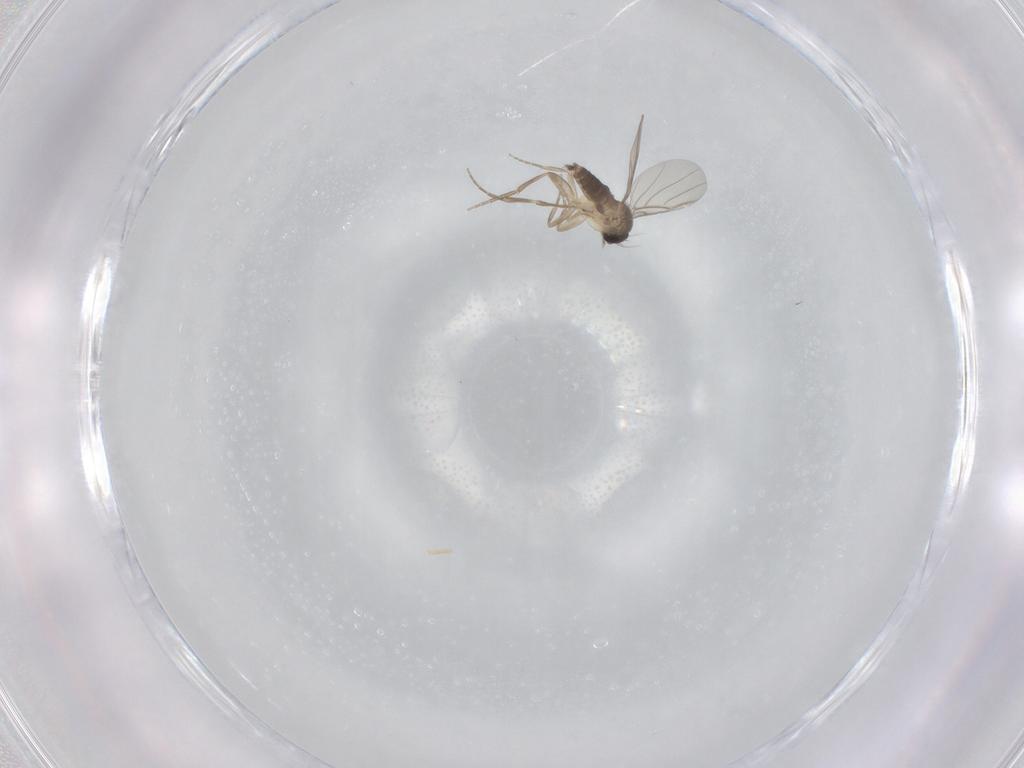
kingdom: Animalia
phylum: Arthropoda
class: Insecta
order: Diptera
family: Phoridae
